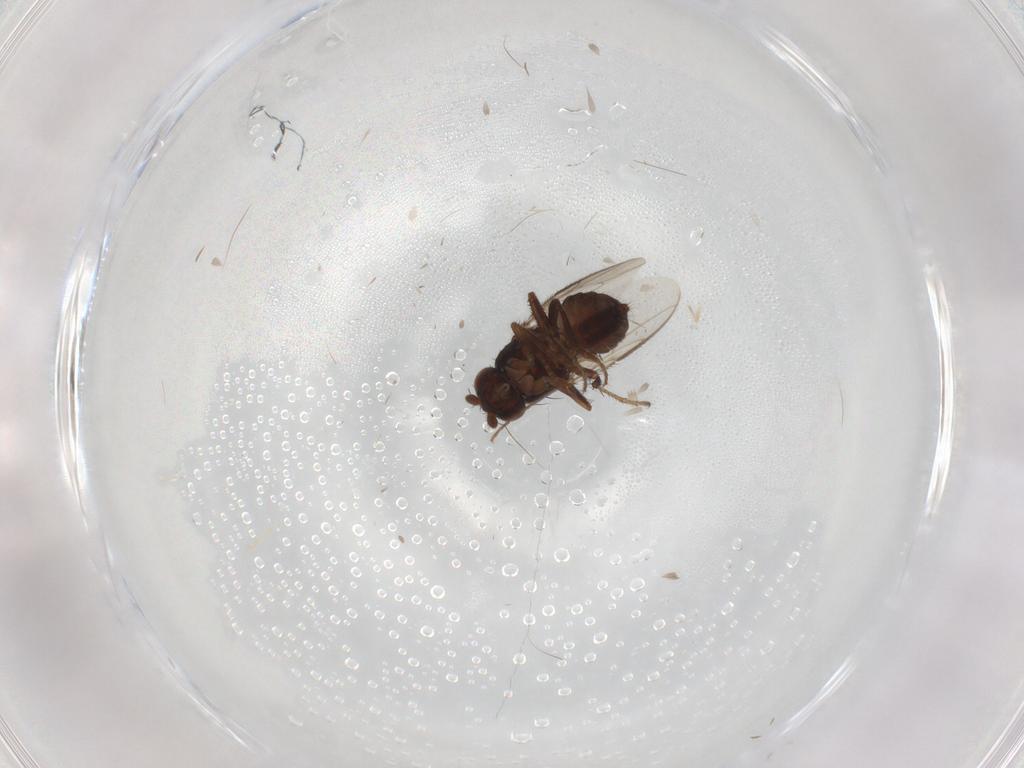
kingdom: Animalia
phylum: Arthropoda
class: Insecta
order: Diptera
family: Sphaeroceridae
